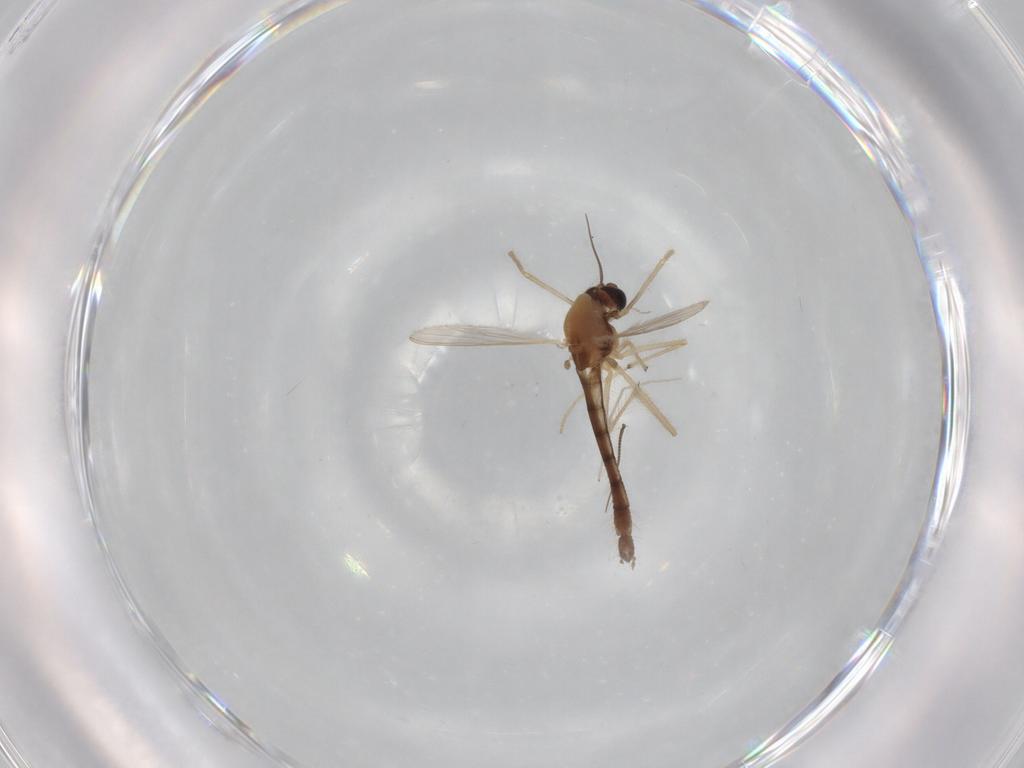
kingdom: Animalia
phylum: Arthropoda
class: Insecta
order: Diptera
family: Chironomidae
